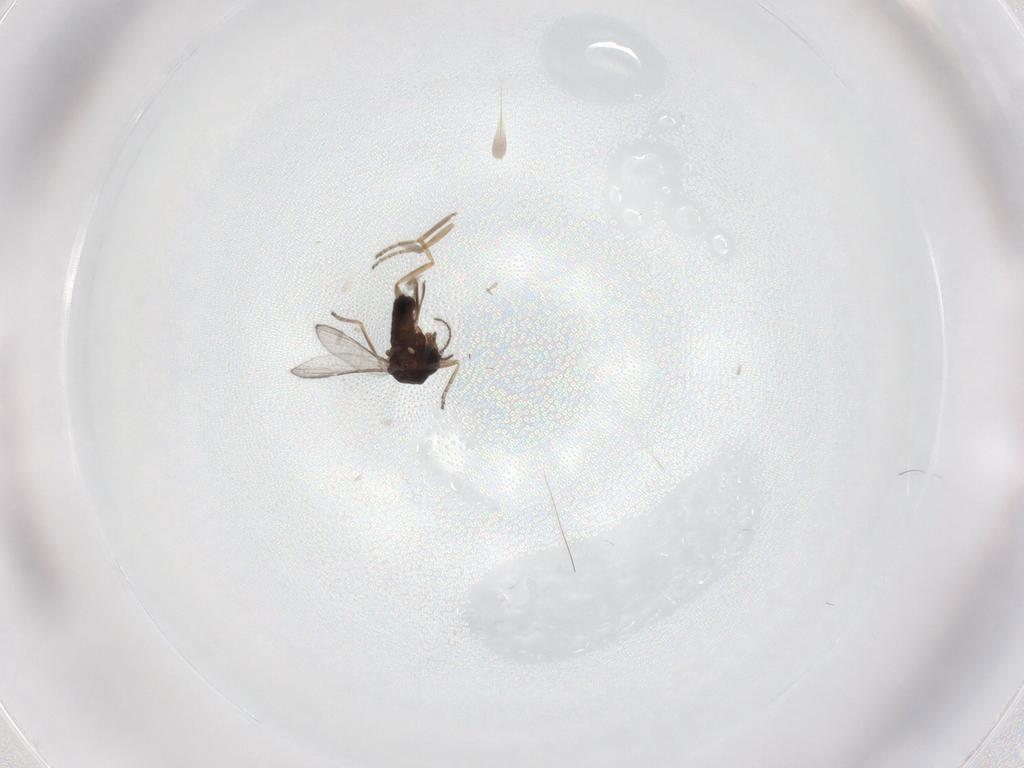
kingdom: Animalia
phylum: Arthropoda
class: Insecta
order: Diptera
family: Ceratopogonidae
